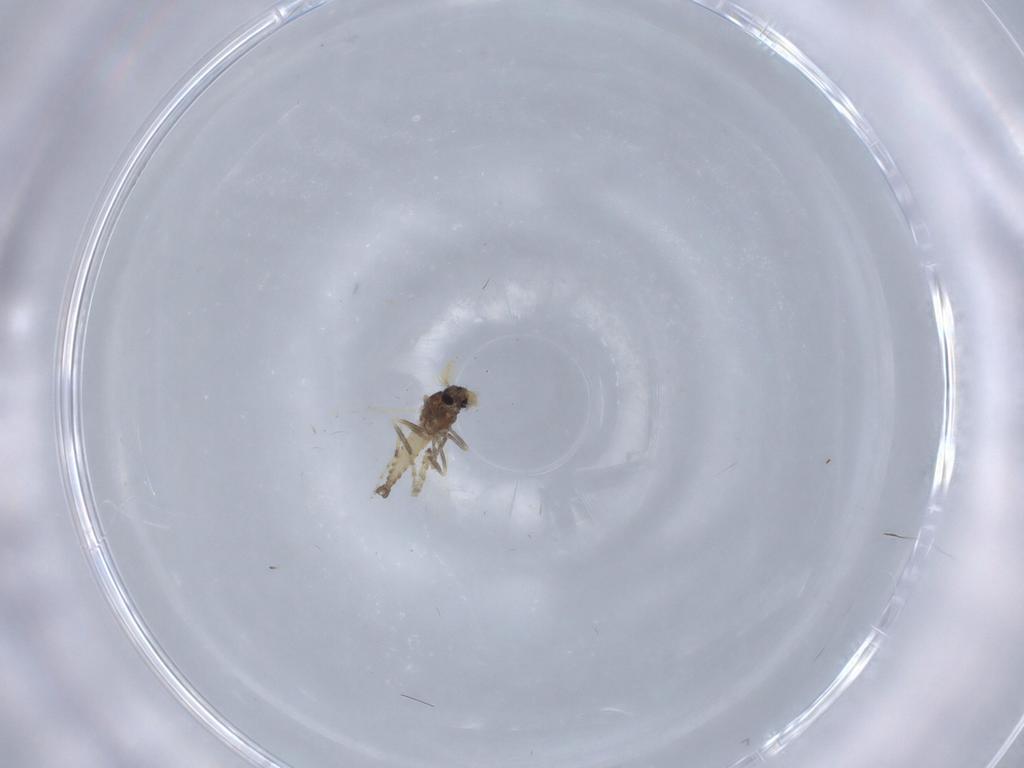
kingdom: Animalia
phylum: Arthropoda
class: Insecta
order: Diptera
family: Ceratopogonidae
